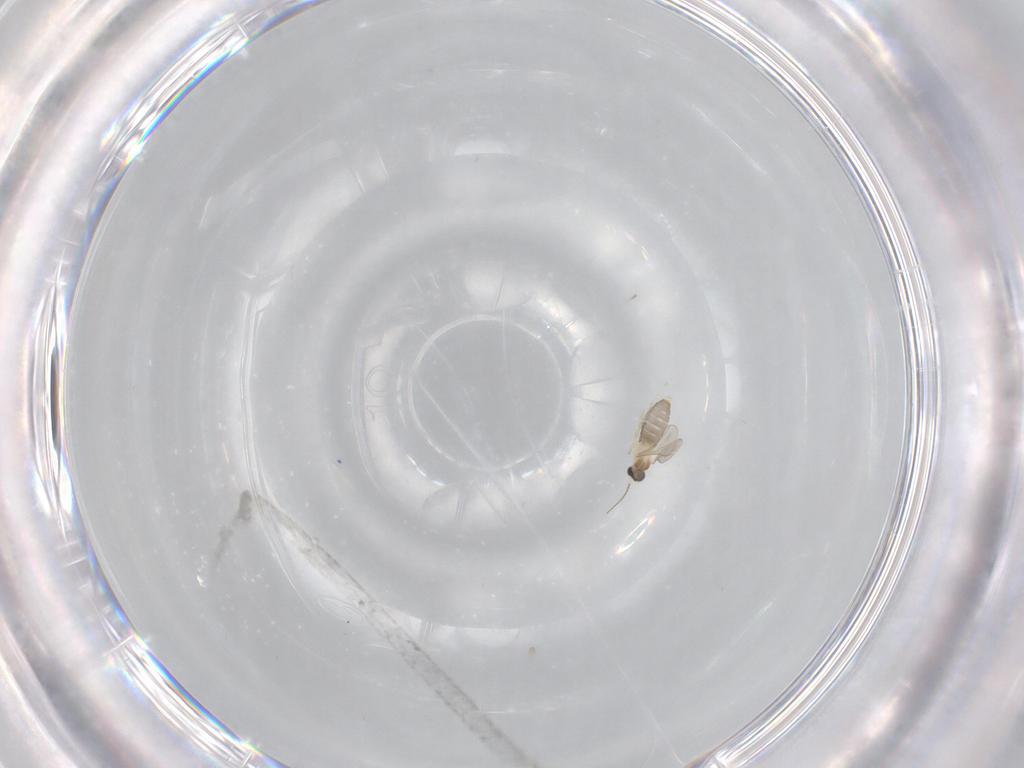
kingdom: Animalia
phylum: Arthropoda
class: Insecta
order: Diptera
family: Cecidomyiidae
